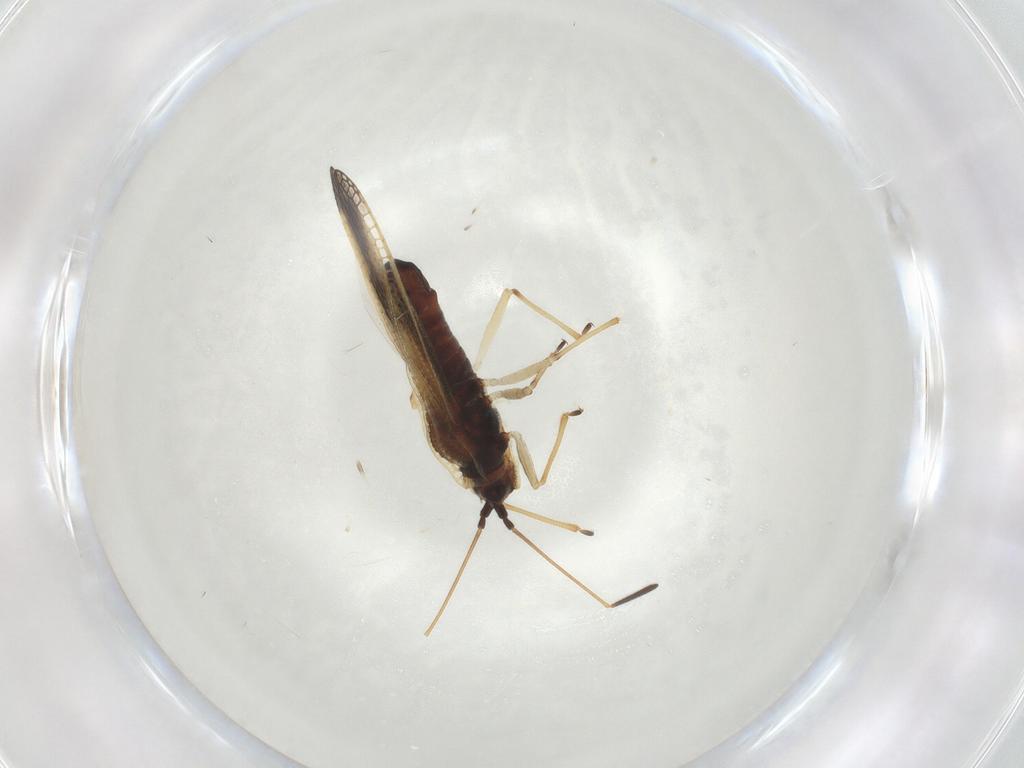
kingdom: Animalia
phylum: Arthropoda
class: Insecta
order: Hemiptera
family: Tingidae
